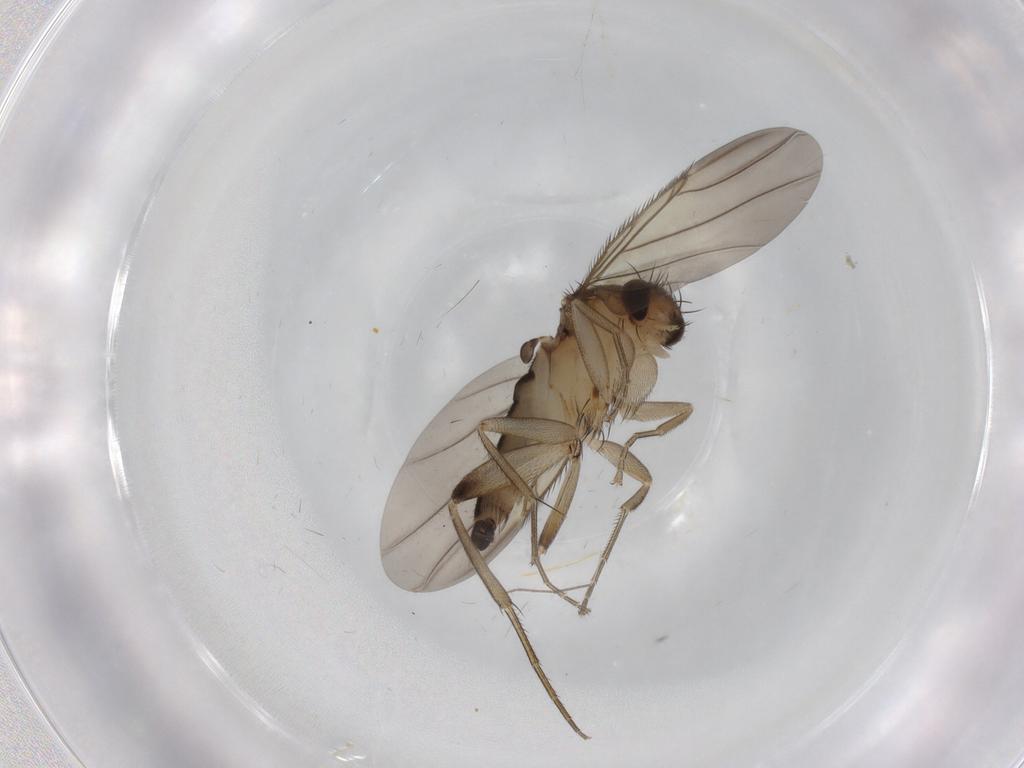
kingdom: Animalia
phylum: Arthropoda
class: Insecta
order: Diptera
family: Phoridae
